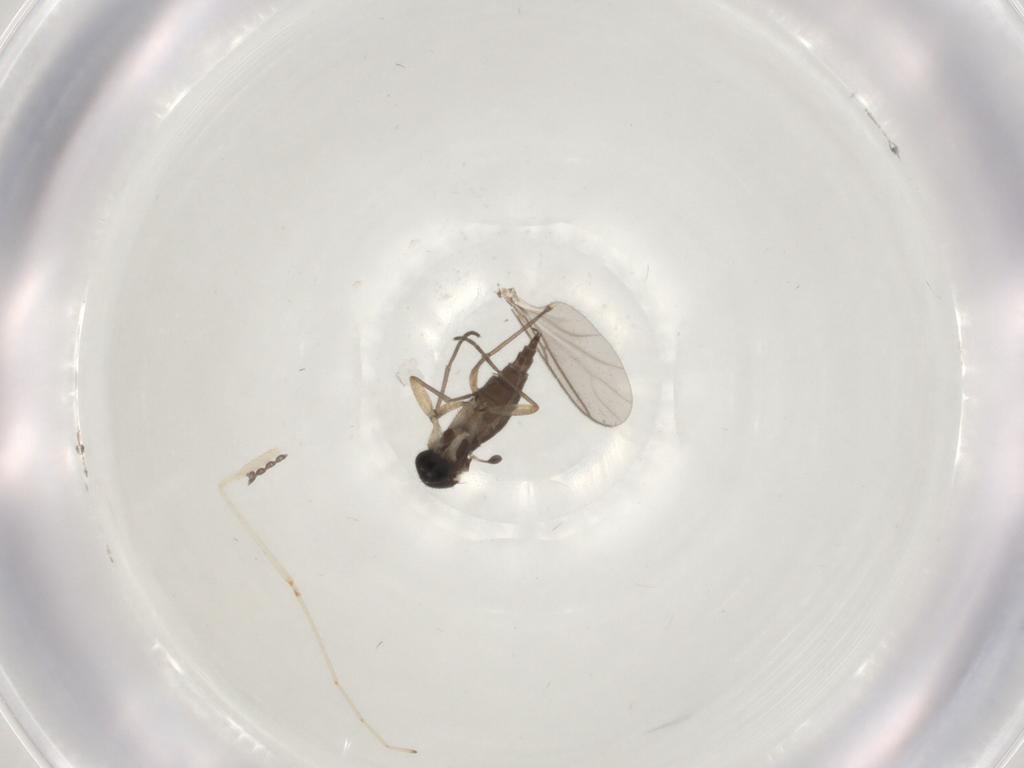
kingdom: Animalia
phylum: Arthropoda
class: Insecta
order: Diptera
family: Sciaridae
